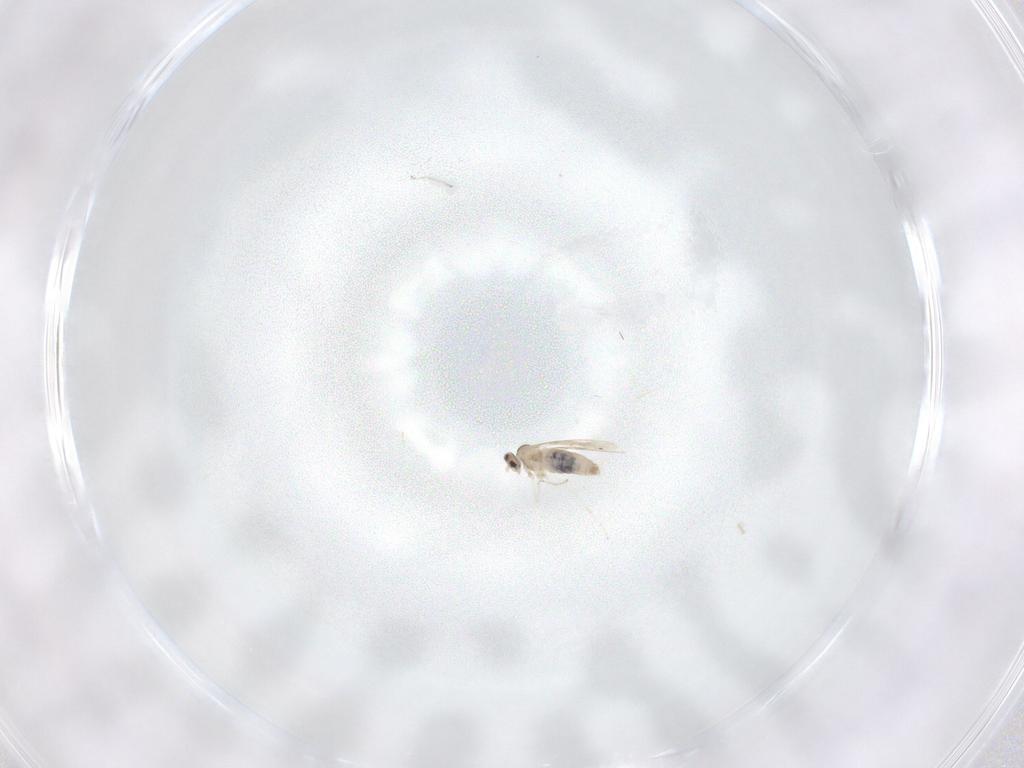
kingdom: Animalia
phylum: Arthropoda
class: Insecta
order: Diptera
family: Cecidomyiidae
